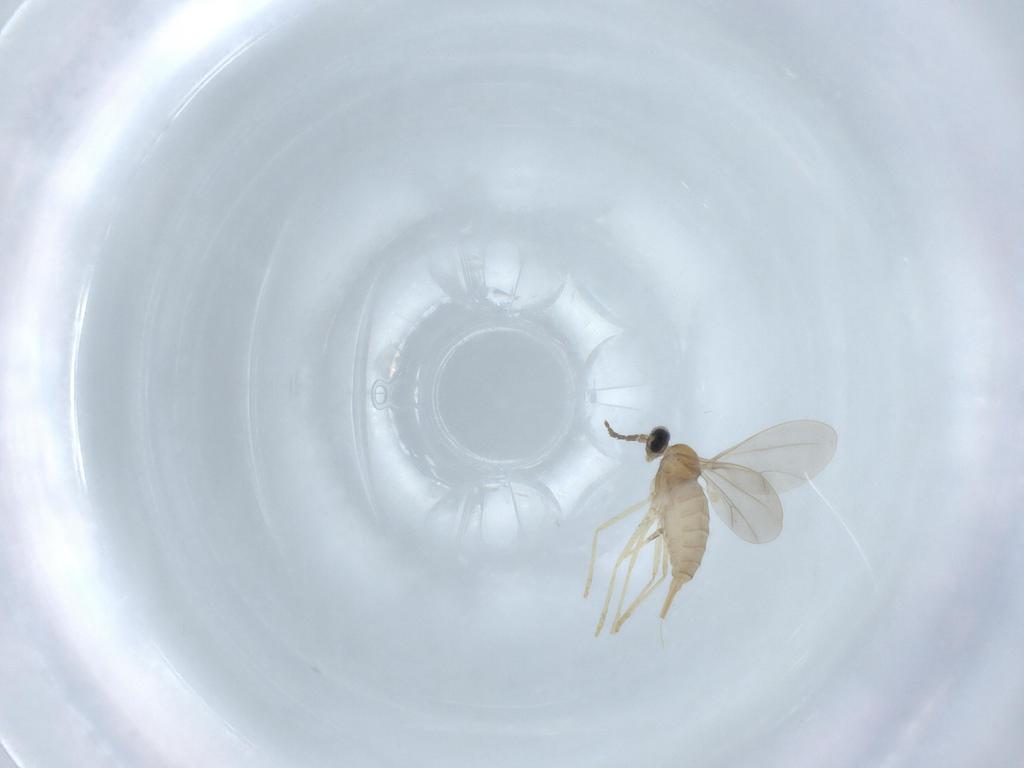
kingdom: Animalia
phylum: Arthropoda
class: Insecta
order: Diptera
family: Cecidomyiidae
